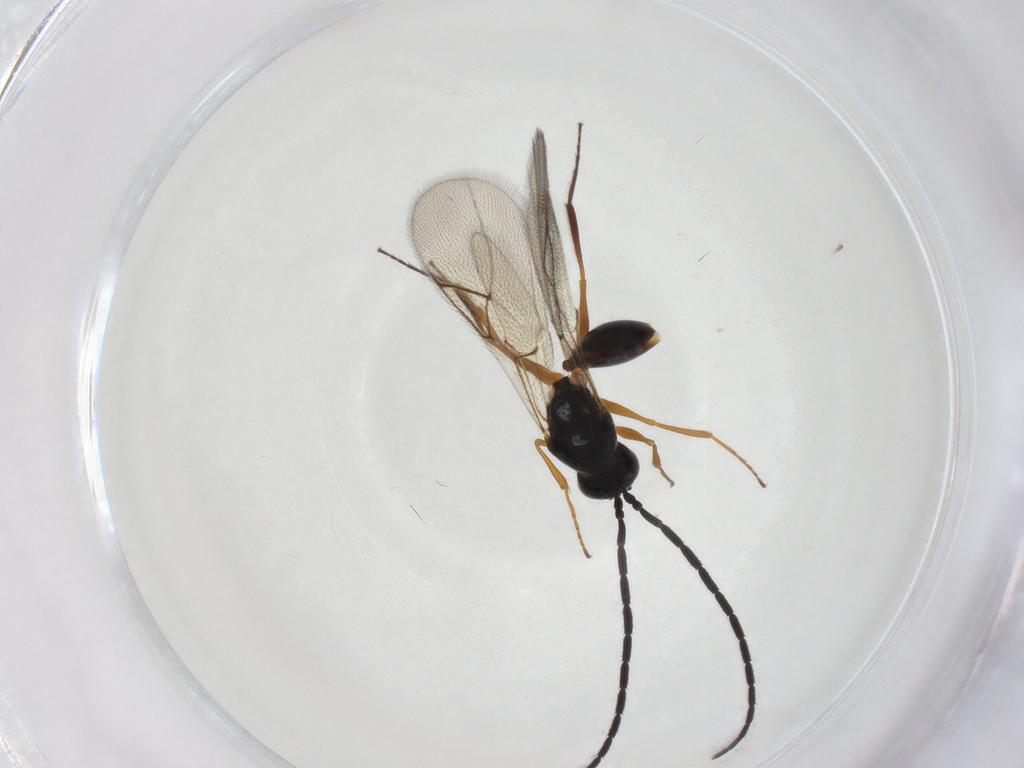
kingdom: Animalia
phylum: Arthropoda
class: Insecta
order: Hymenoptera
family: Figitidae
